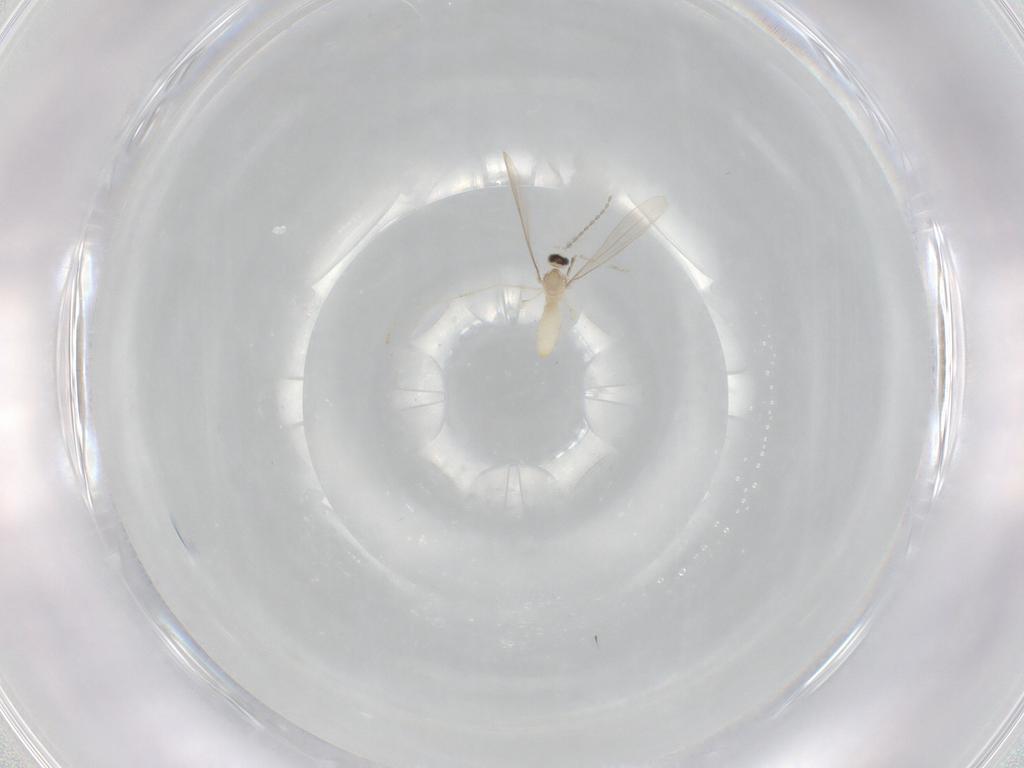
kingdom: Animalia
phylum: Arthropoda
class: Insecta
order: Diptera
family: Cecidomyiidae
